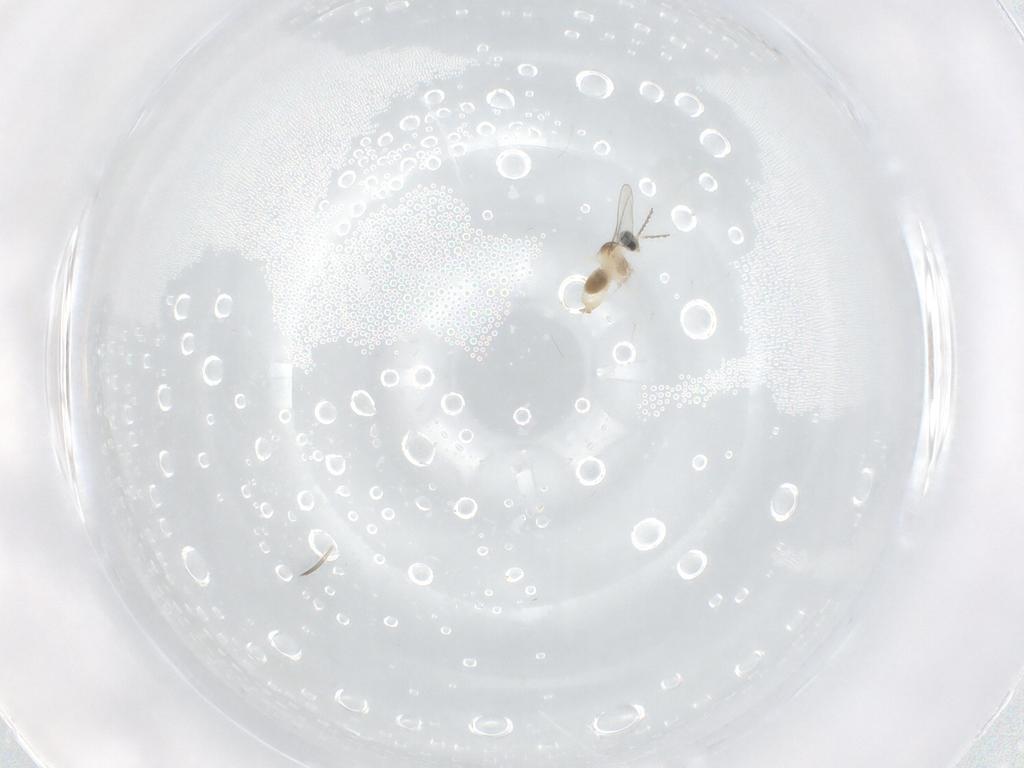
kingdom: Animalia
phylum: Arthropoda
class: Insecta
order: Diptera
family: Cecidomyiidae
